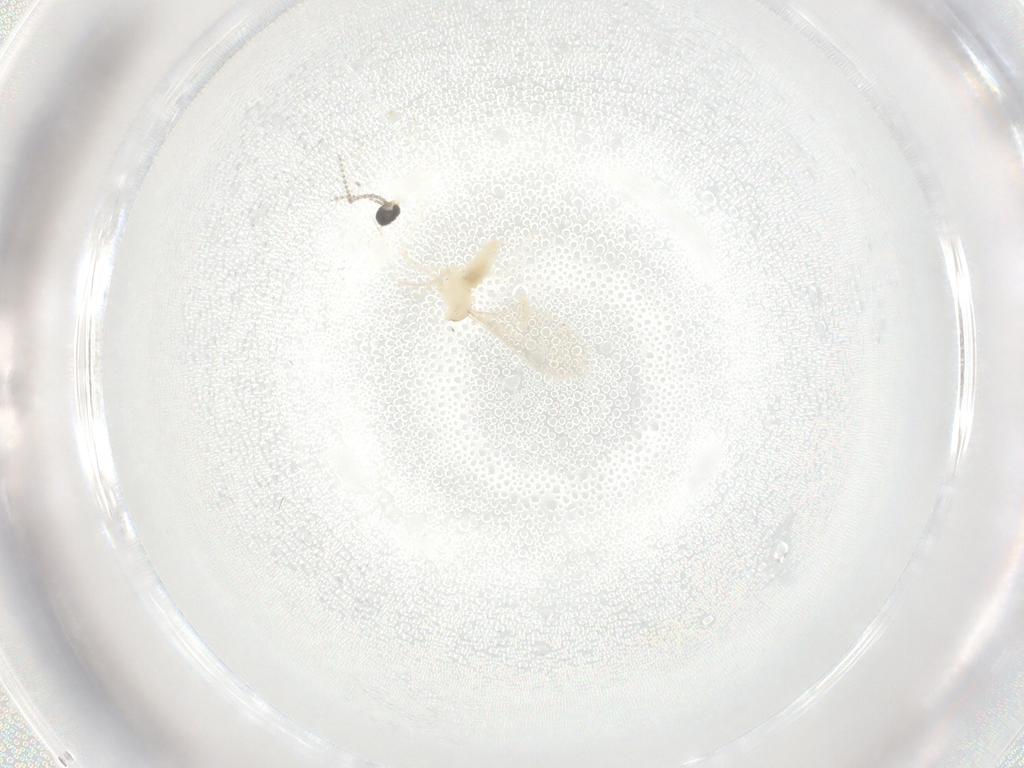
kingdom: Animalia
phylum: Arthropoda
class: Insecta
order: Diptera
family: Cecidomyiidae
